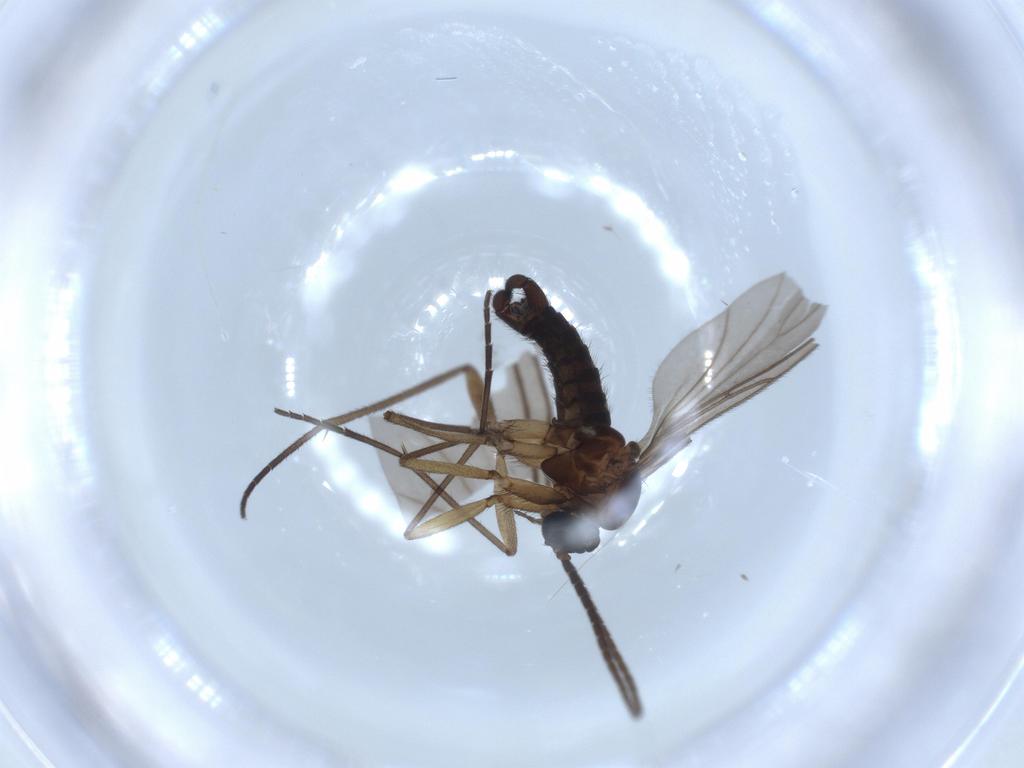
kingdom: Animalia
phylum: Arthropoda
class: Insecta
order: Diptera
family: Sciaridae
